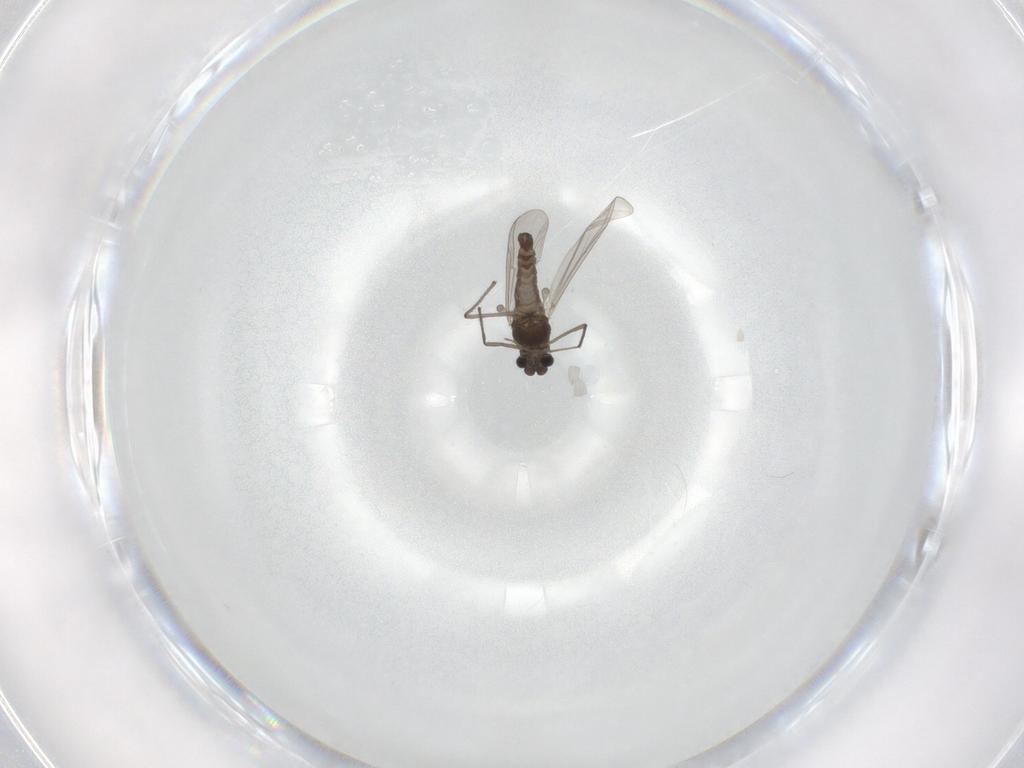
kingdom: Animalia
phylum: Arthropoda
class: Insecta
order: Diptera
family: Chironomidae
